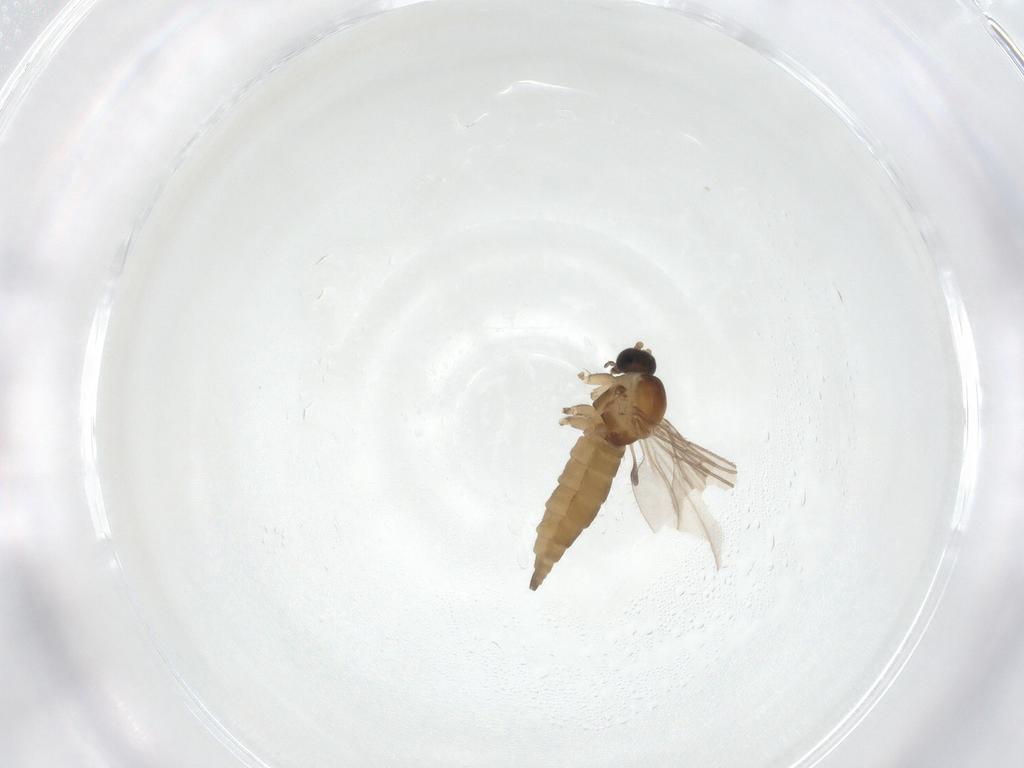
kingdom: Animalia
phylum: Arthropoda
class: Insecta
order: Diptera
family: Sciaridae
